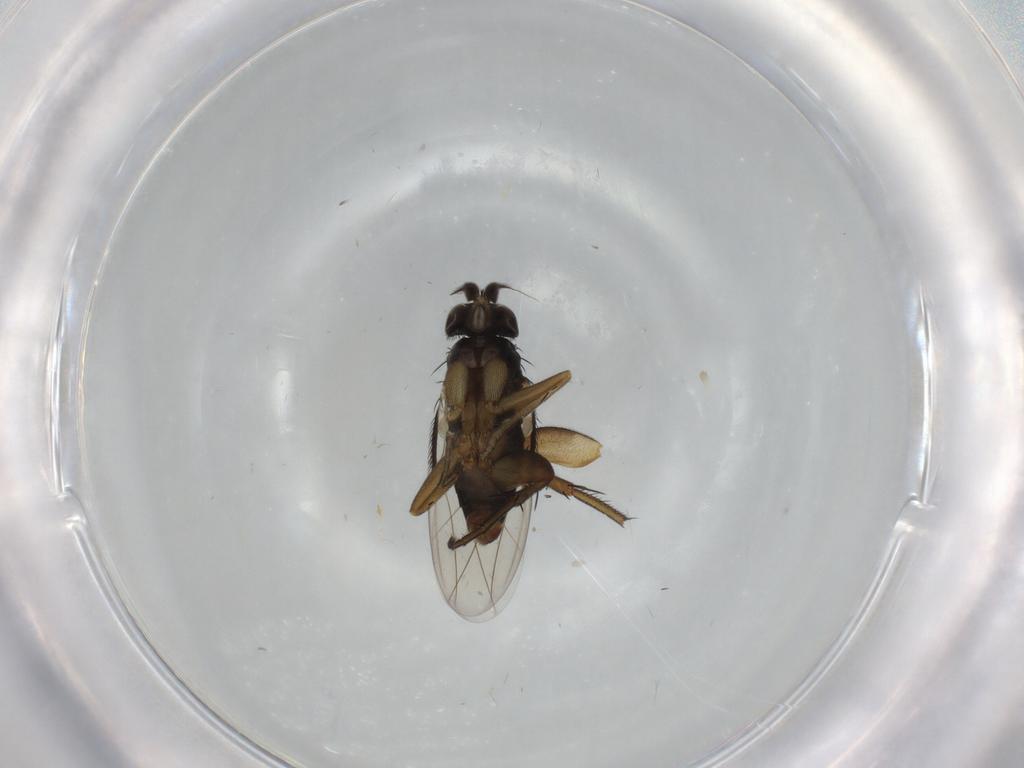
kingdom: Animalia
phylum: Arthropoda
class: Insecta
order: Diptera
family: Phoridae
